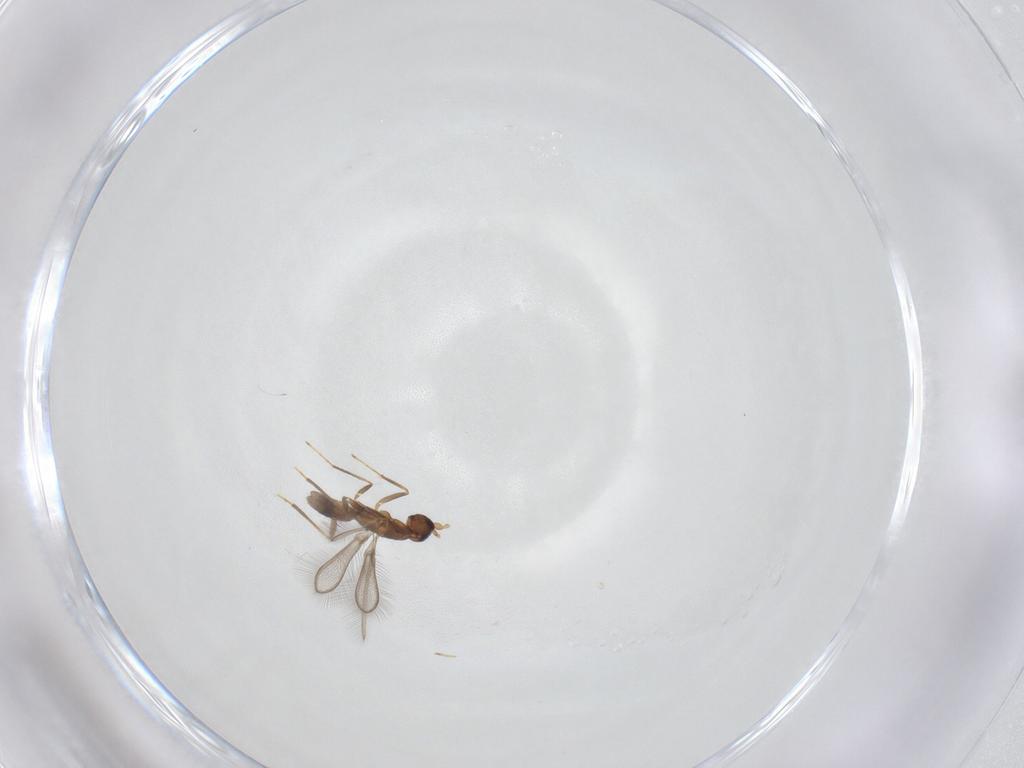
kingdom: Animalia
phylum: Arthropoda
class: Insecta
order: Hymenoptera
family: Mymaridae
